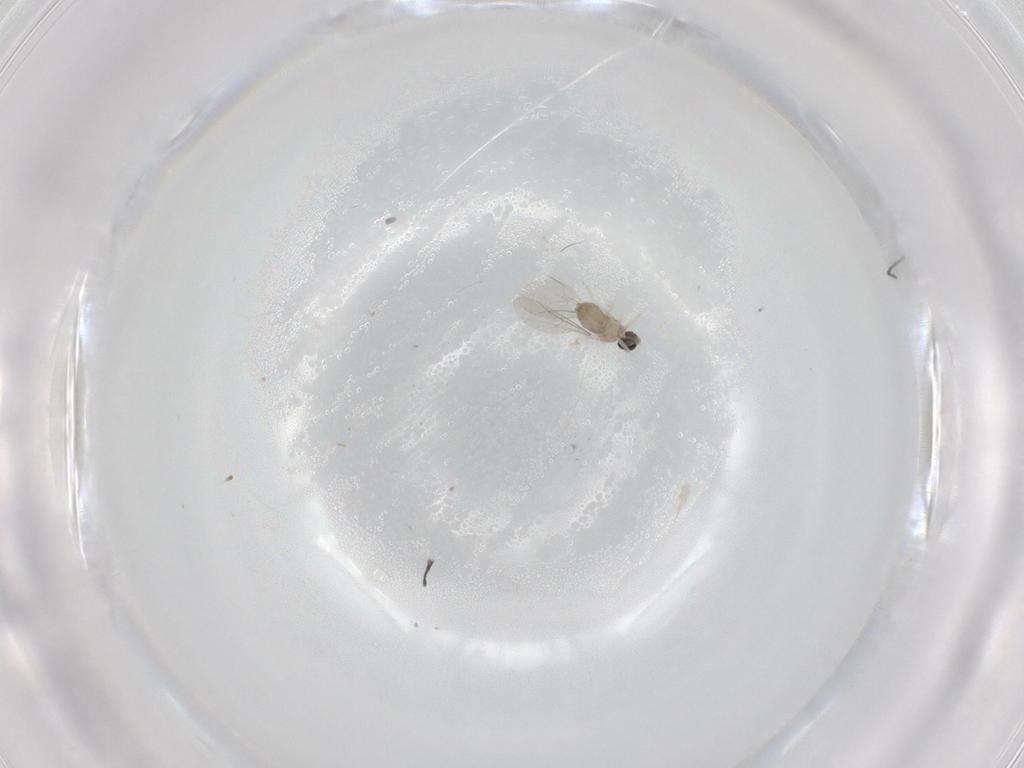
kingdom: Animalia
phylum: Arthropoda
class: Insecta
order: Diptera
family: Cecidomyiidae
